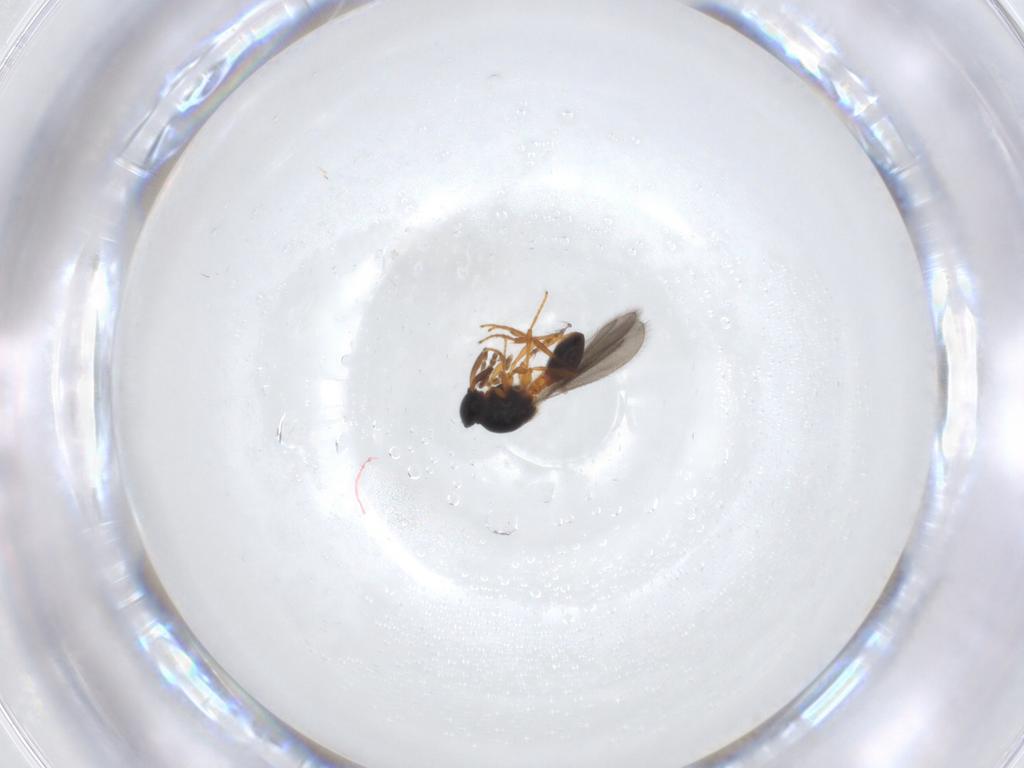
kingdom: Animalia
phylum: Arthropoda
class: Insecta
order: Hymenoptera
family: Platygastridae
